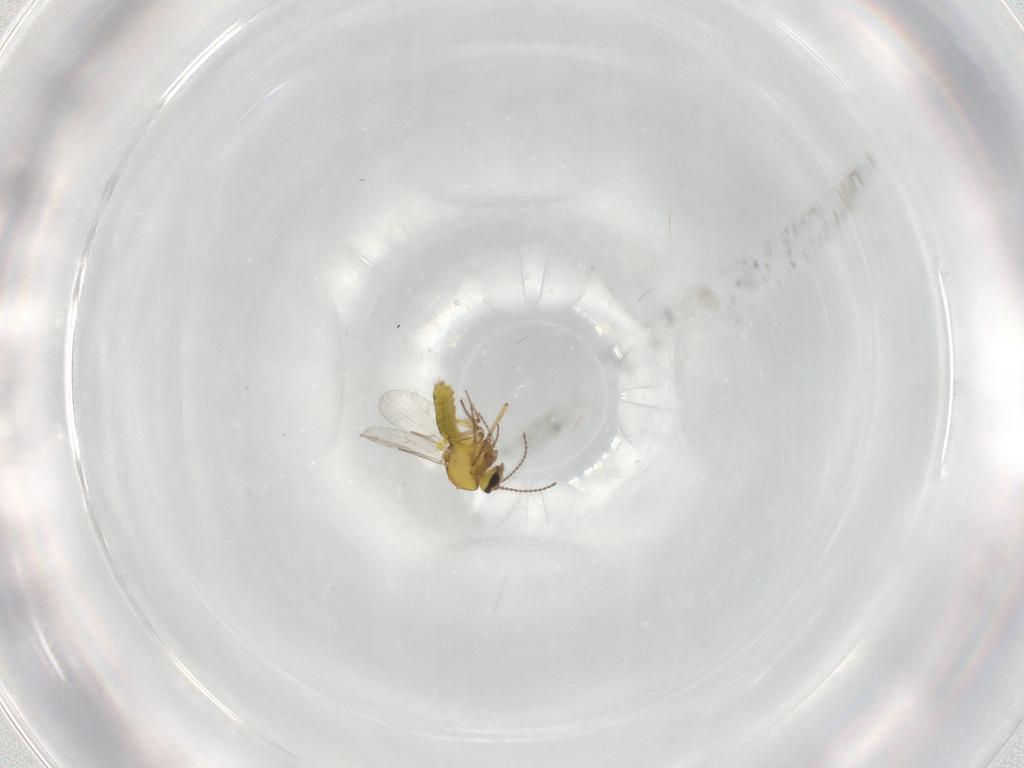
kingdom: Animalia
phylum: Arthropoda
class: Insecta
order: Diptera
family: Ceratopogonidae
